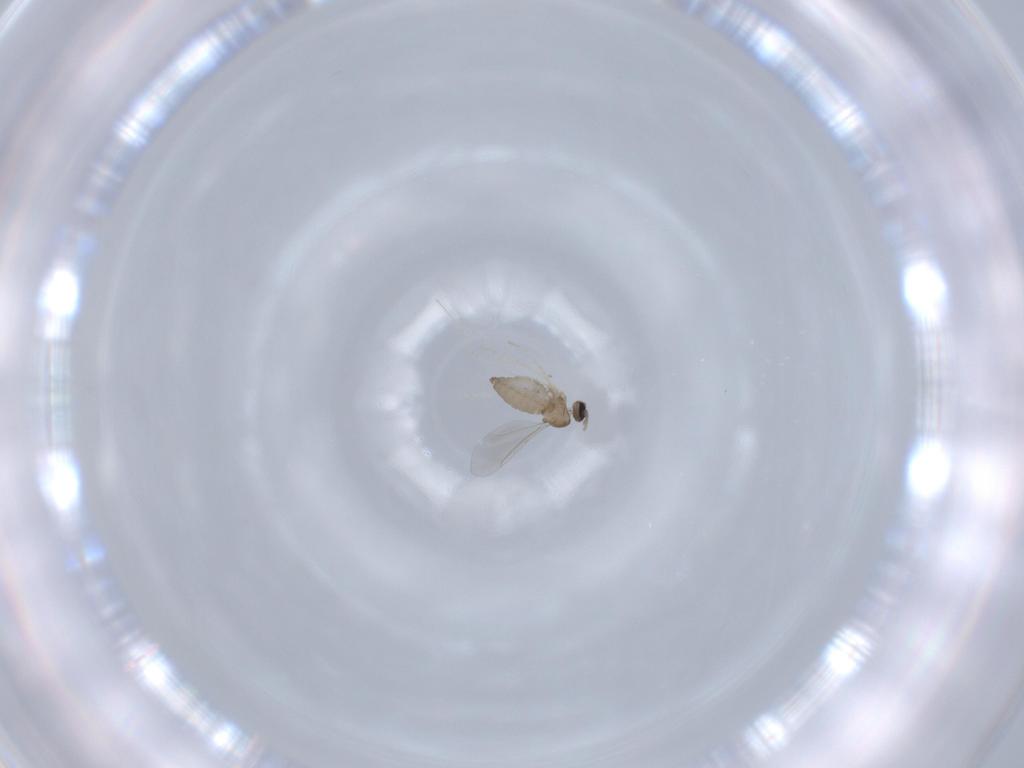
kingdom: Animalia
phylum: Arthropoda
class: Insecta
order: Diptera
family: Cecidomyiidae
